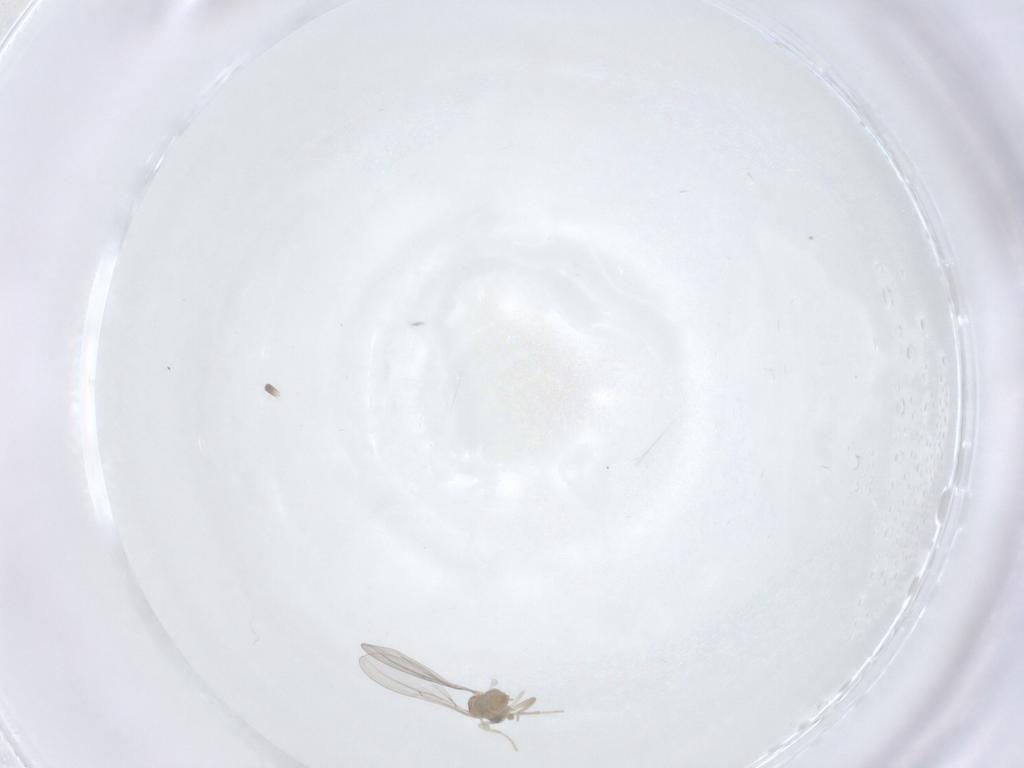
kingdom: Animalia
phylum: Arthropoda
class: Insecta
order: Diptera
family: Cecidomyiidae
